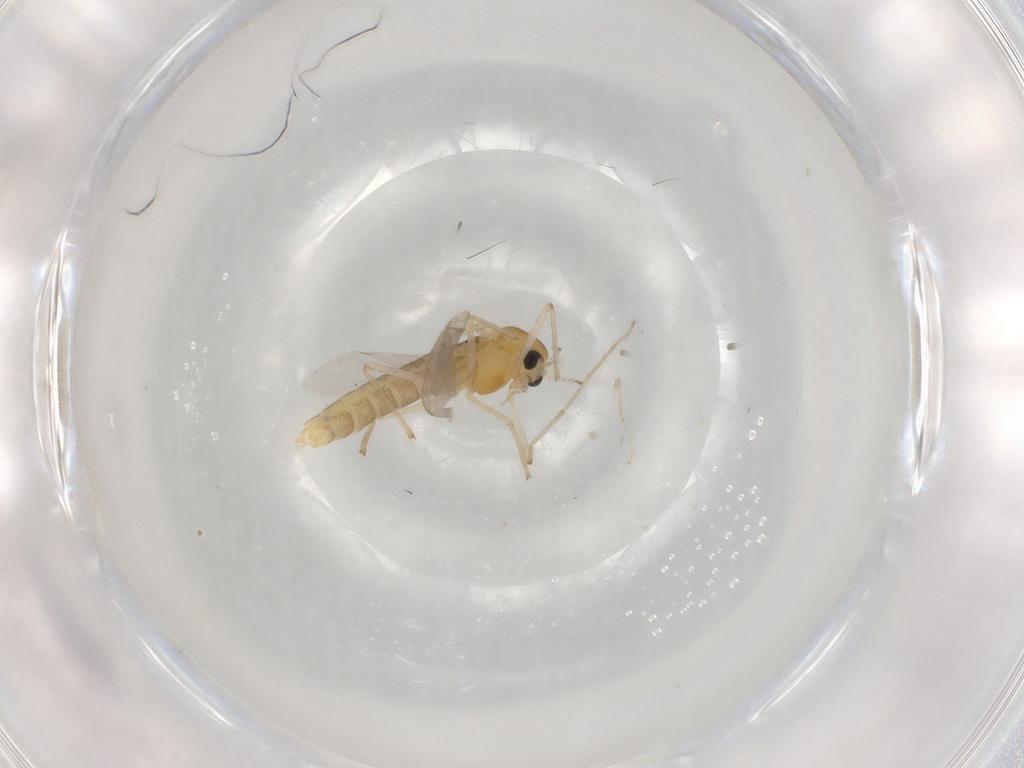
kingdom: Animalia
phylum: Arthropoda
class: Insecta
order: Diptera
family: Chironomidae
